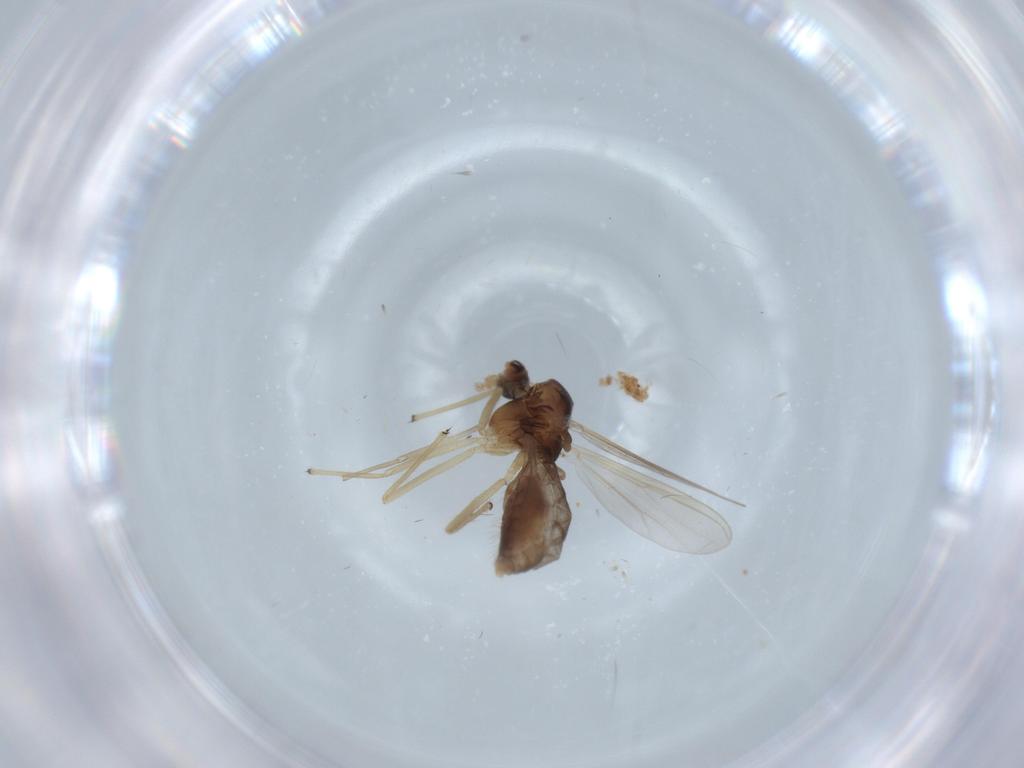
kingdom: Animalia
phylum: Arthropoda
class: Insecta
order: Diptera
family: Chironomidae
